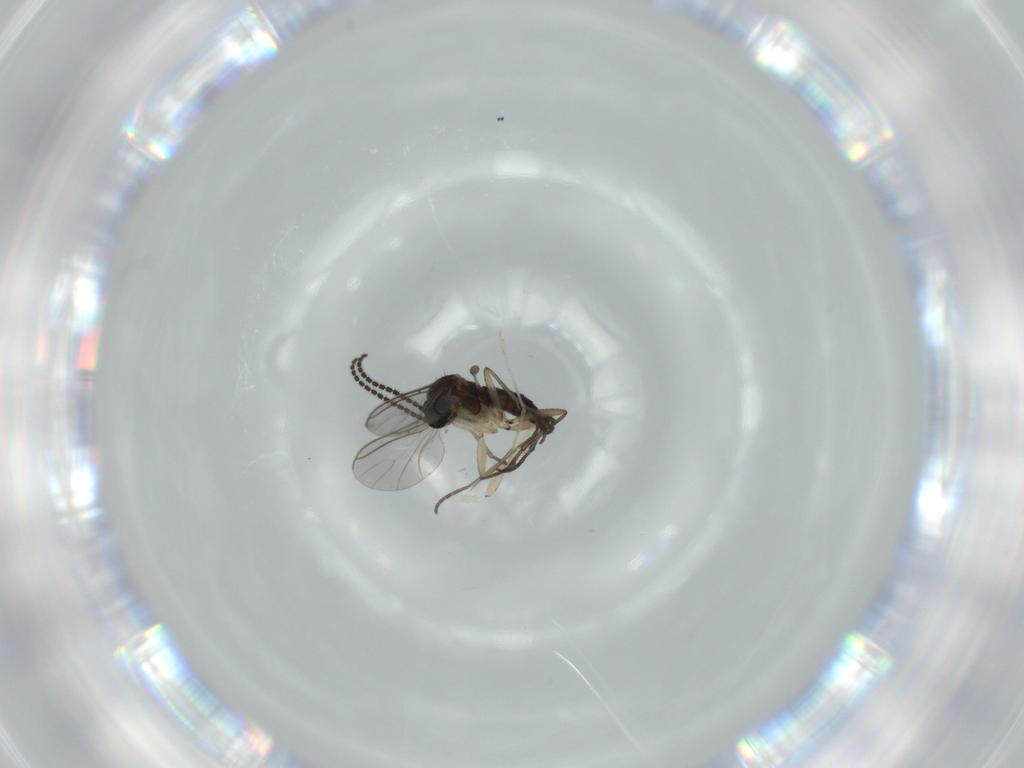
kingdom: Animalia
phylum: Arthropoda
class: Insecta
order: Diptera
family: Sciaridae
